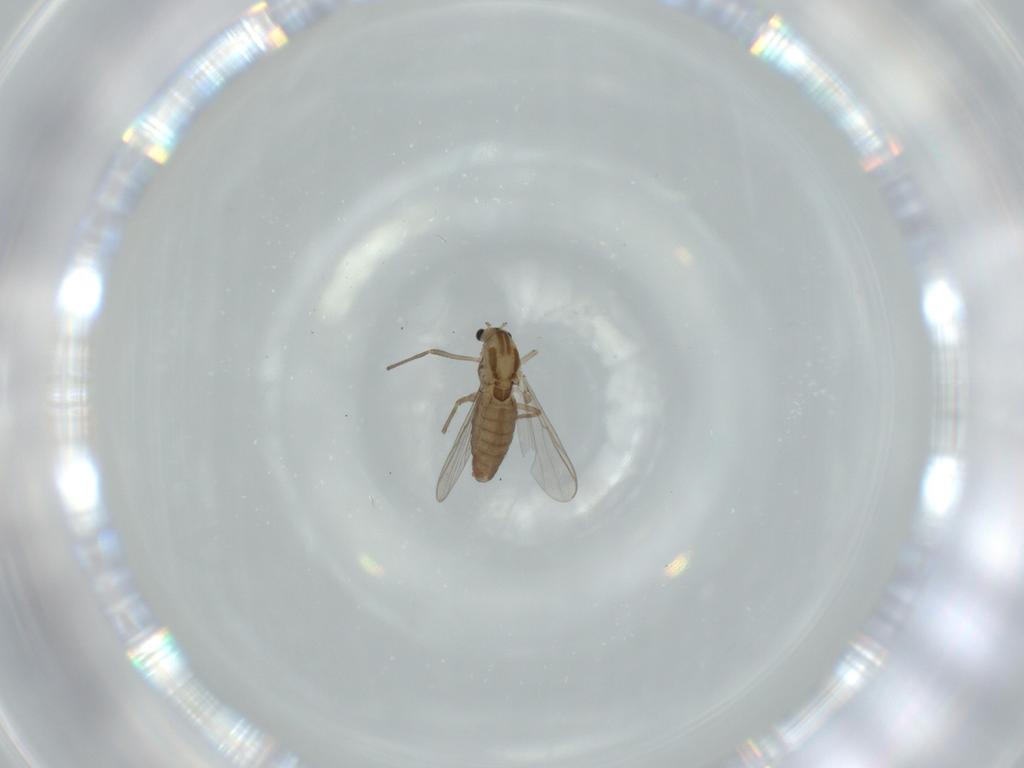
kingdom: Animalia
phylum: Arthropoda
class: Insecta
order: Diptera
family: Chironomidae
